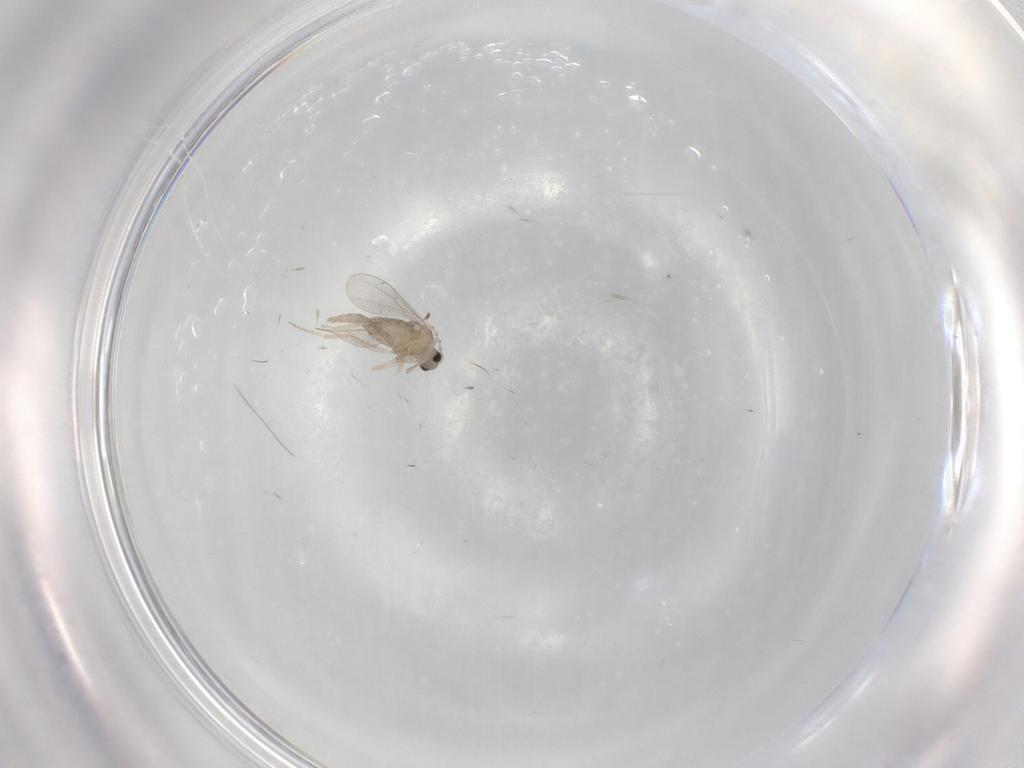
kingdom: Animalia
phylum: Arthropoda
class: Insecta
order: Diptera
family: Cecidomyiidae
